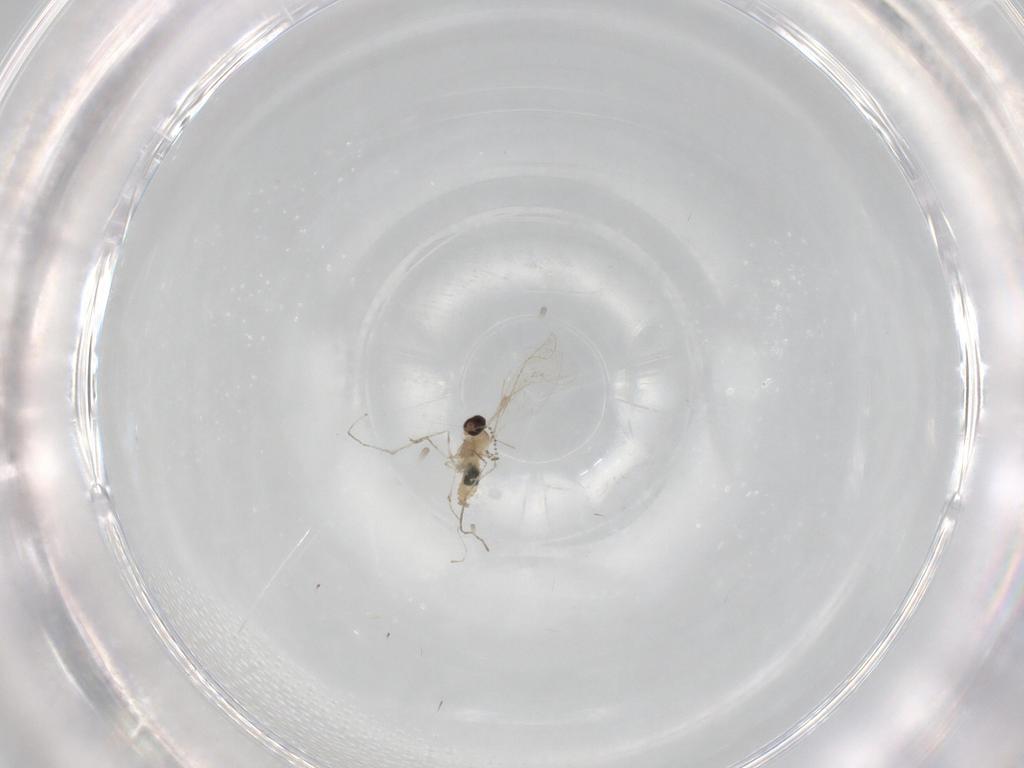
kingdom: Animalia
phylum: Arthropoda
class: Insecta
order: Diptera
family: Cecidomyiidae
